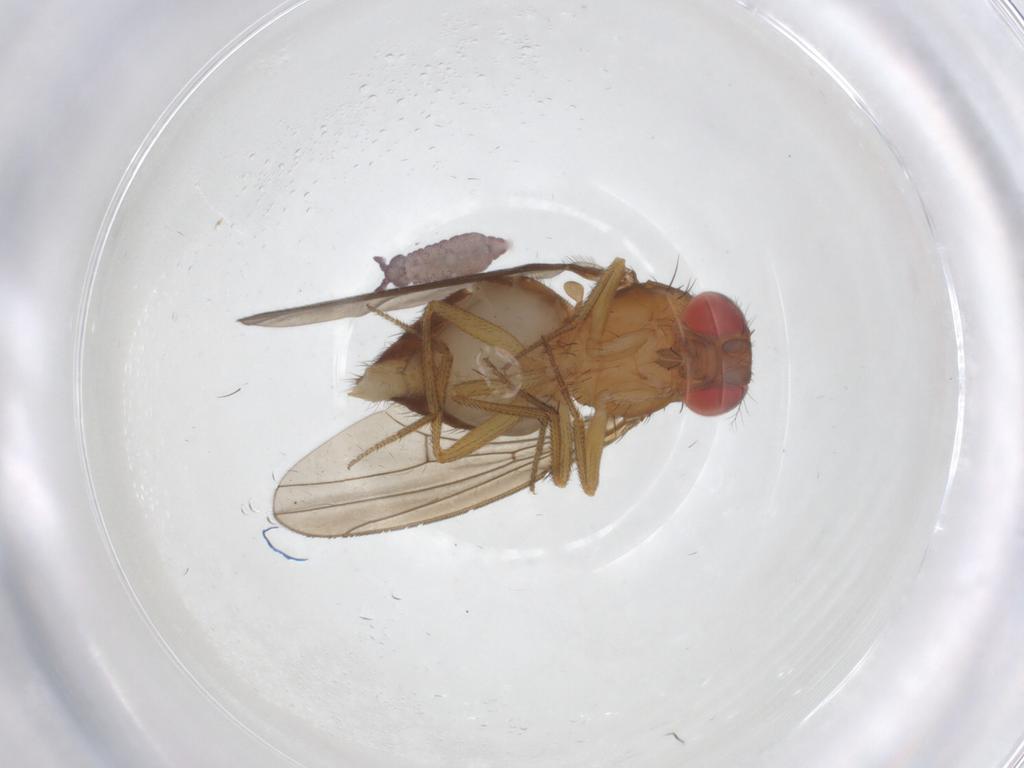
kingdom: Animalia
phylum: Arthropoda
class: Insecta
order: Diptera
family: Drosophilidae
